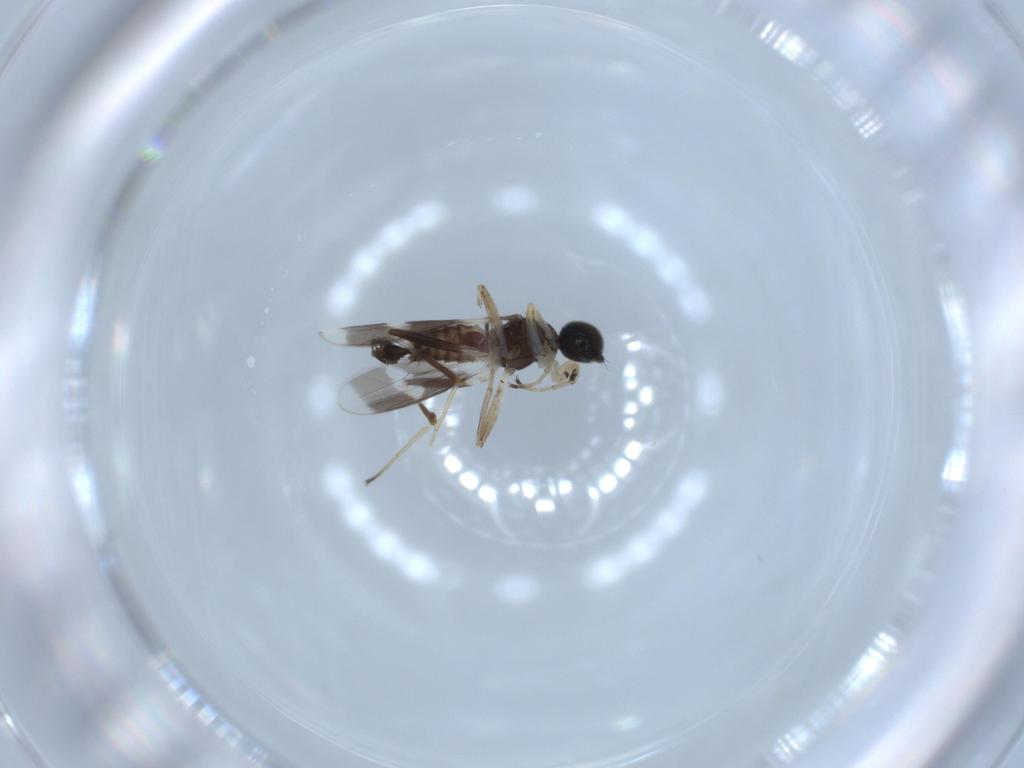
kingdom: Animalia
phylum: Arthropoda
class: Insecta
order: Diptera
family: Hybotidae
